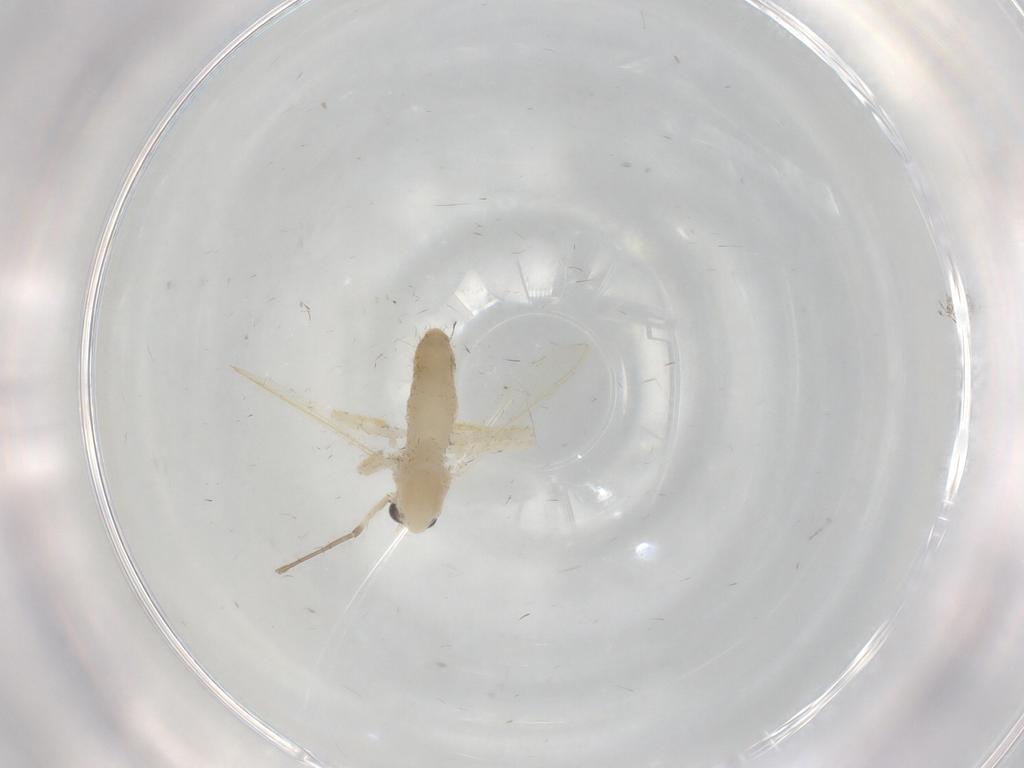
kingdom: Animalia
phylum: Arthropoda
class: Insecta
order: Diptera
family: Chironomidae
